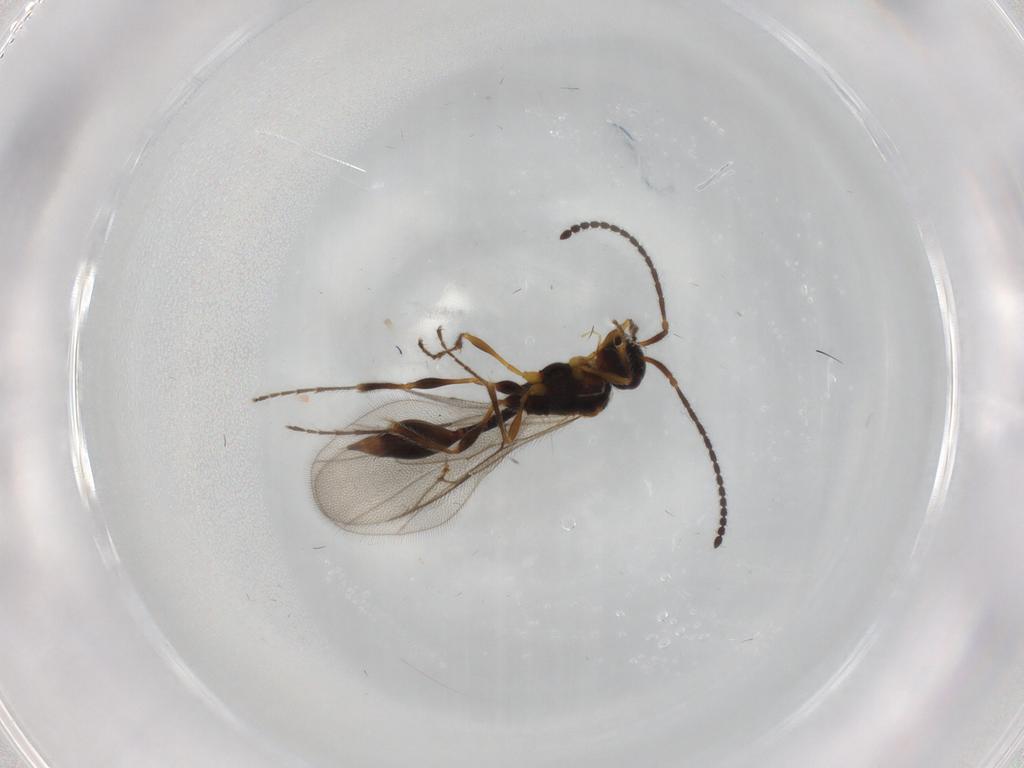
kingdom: Animalia
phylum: Arthropoda
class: Insecta
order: Hymenoptera
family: Diapriidae
